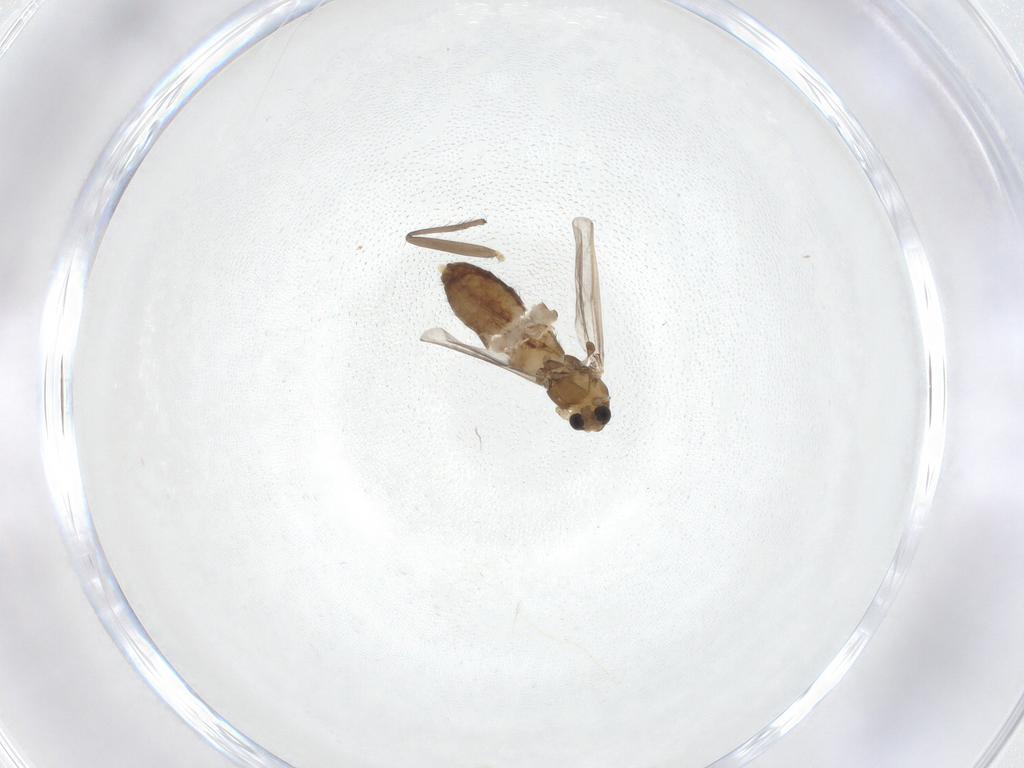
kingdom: Animalia
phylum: Arthropoda
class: Insecta
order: Diptera
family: Chironomidae
